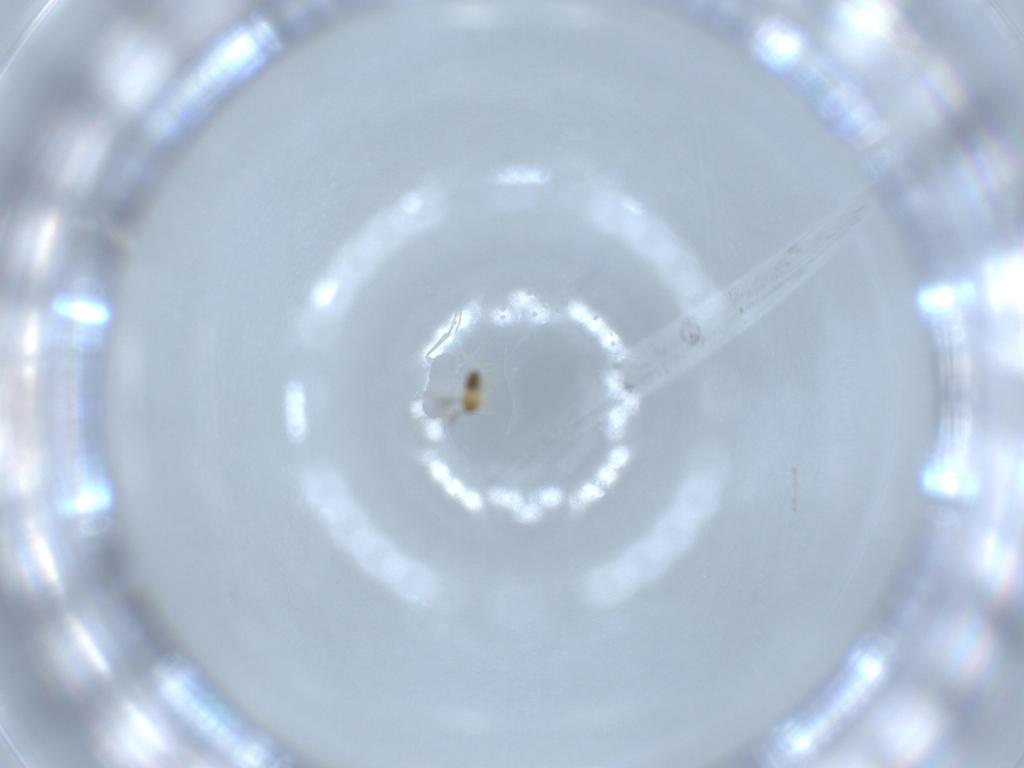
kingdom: Animalia
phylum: Arthropoda
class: Insecta
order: Hymenoptera
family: Trichogrammatidae
